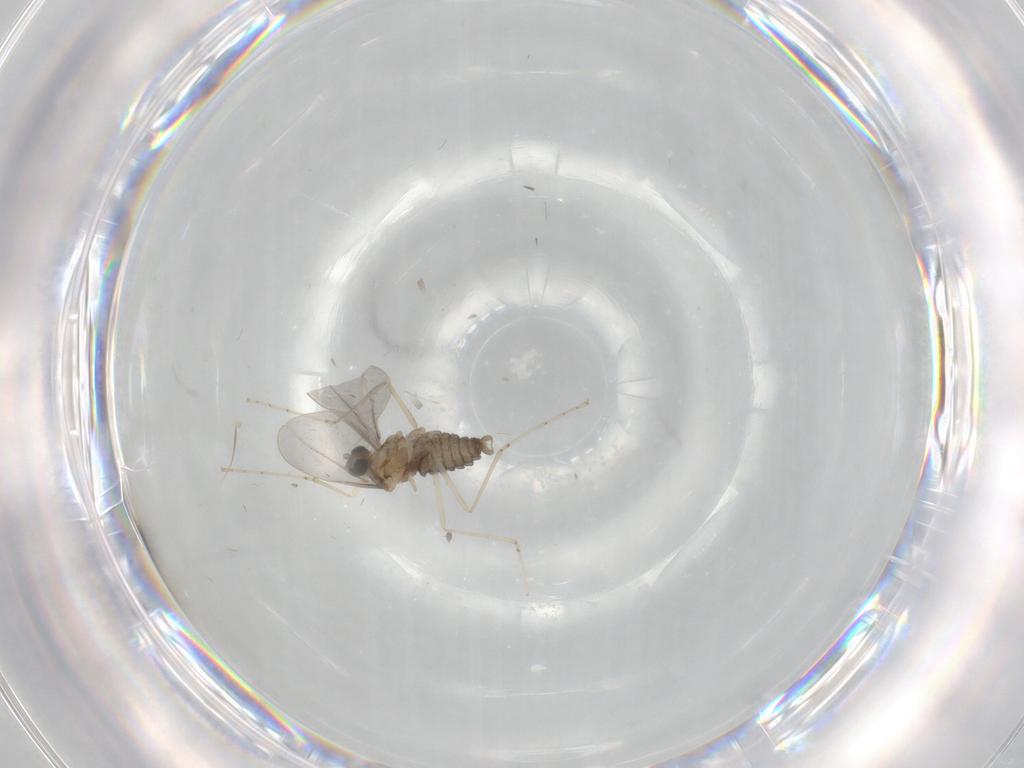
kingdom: Animalia
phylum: Arthropoda
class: Insecta
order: Diptera
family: Cecidomyiidae
